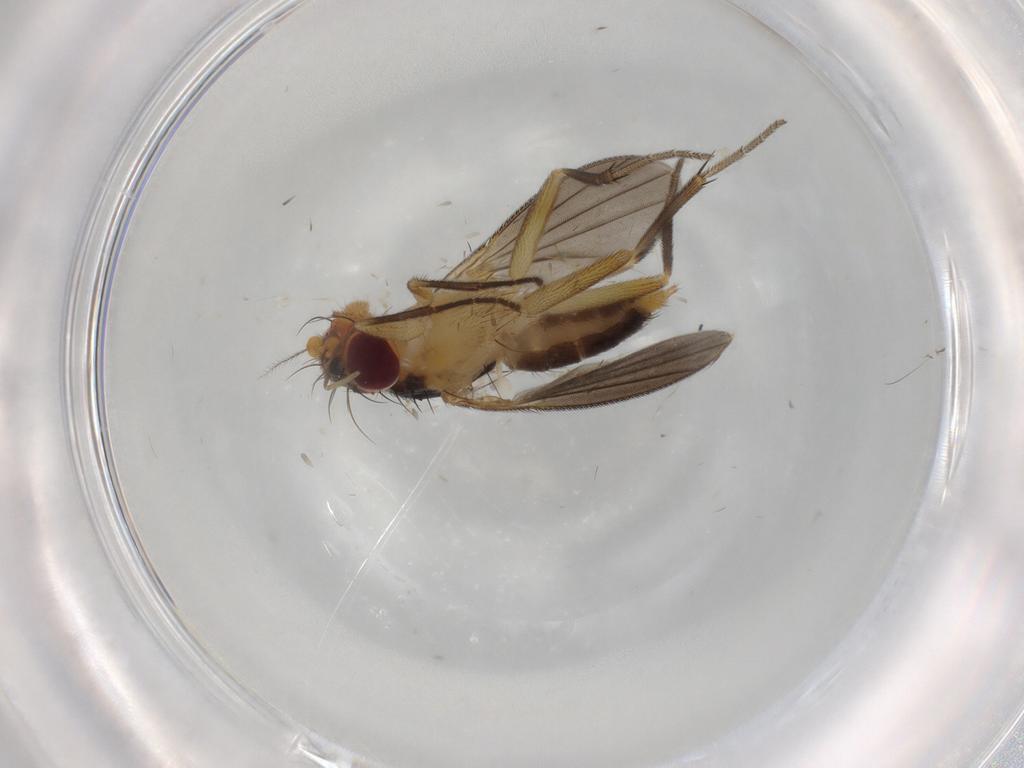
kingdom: Animalia
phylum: Arthropoda
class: Insecta
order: Diptera
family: Clusiidae
